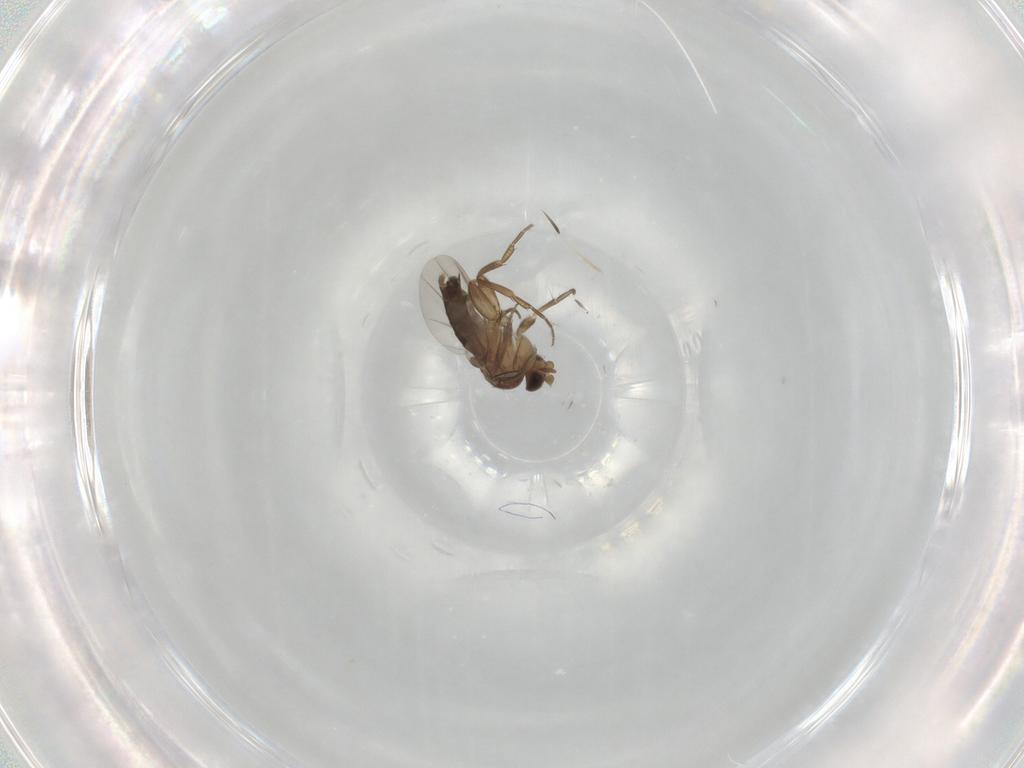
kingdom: Animalia
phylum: Arthropoda
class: Insecta
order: Diptera
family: Phoridae
